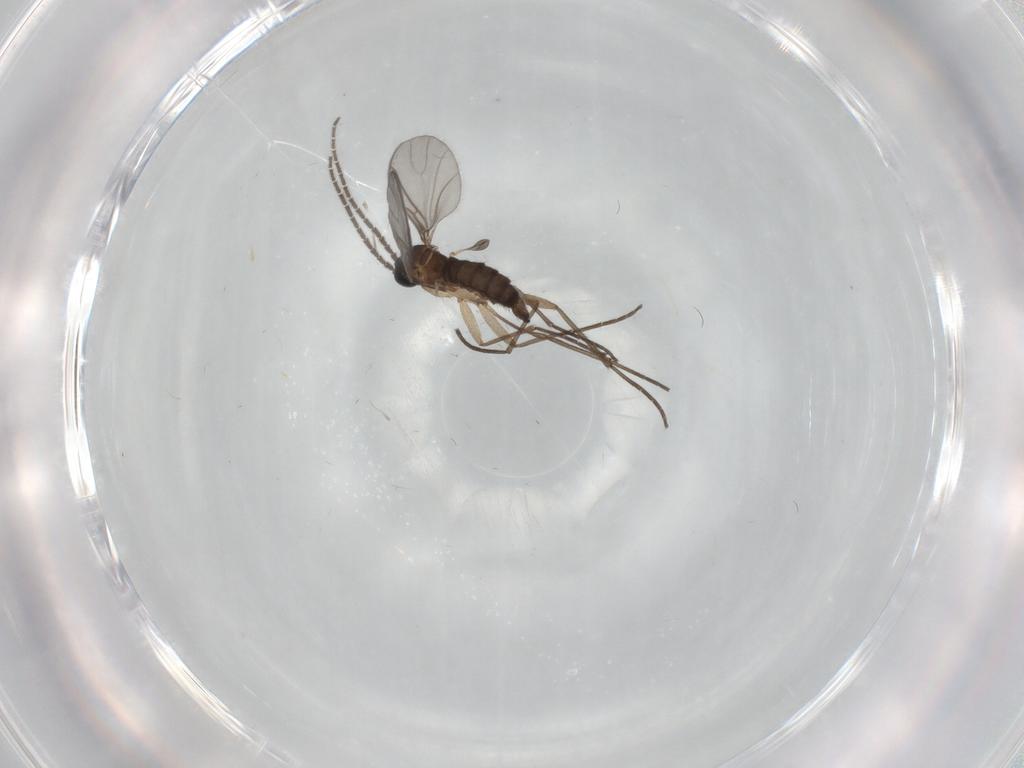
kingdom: Animalia
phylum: Arthropoda
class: Insecta
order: Diptera
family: Sciaridae
